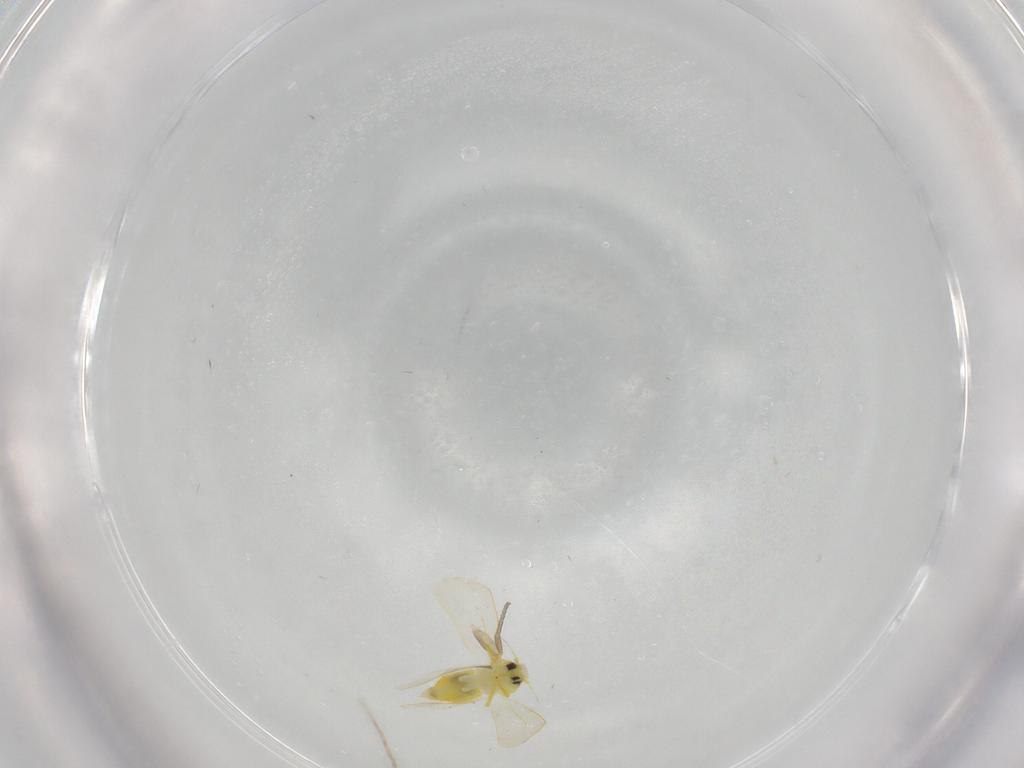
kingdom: Animalia
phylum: Arthropoda
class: Insecta
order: Hemiptera
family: Aleyrodidae
